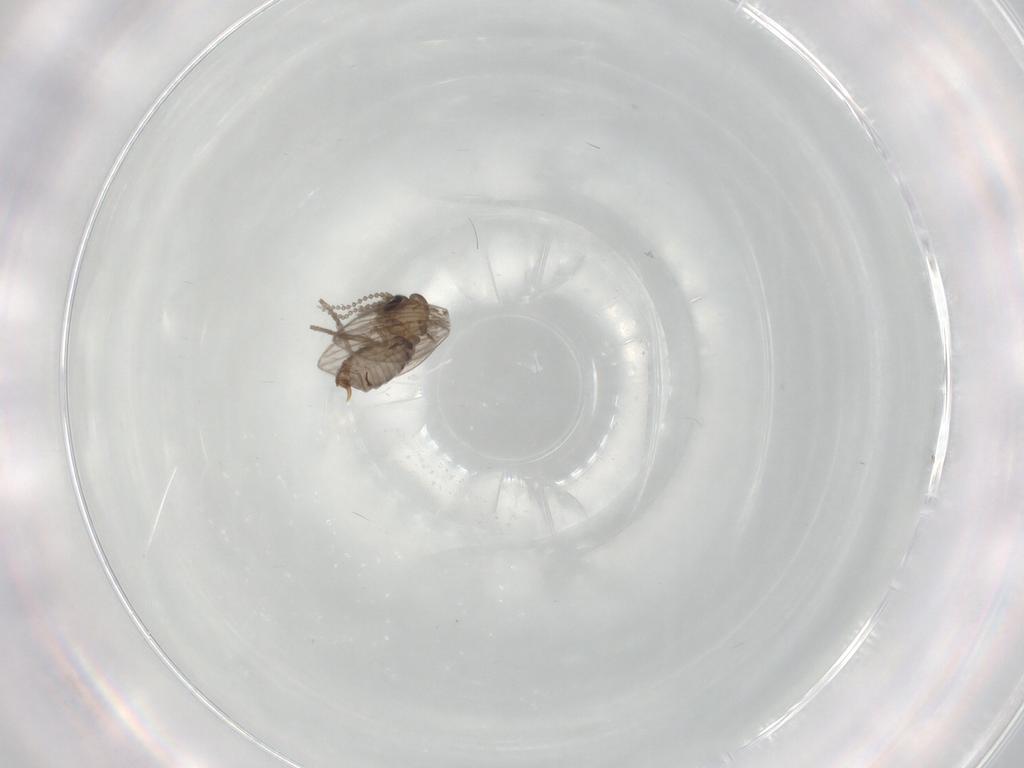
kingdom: Animalia
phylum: Arthropoda
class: Insecta
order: Diptera
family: Psychodidae
